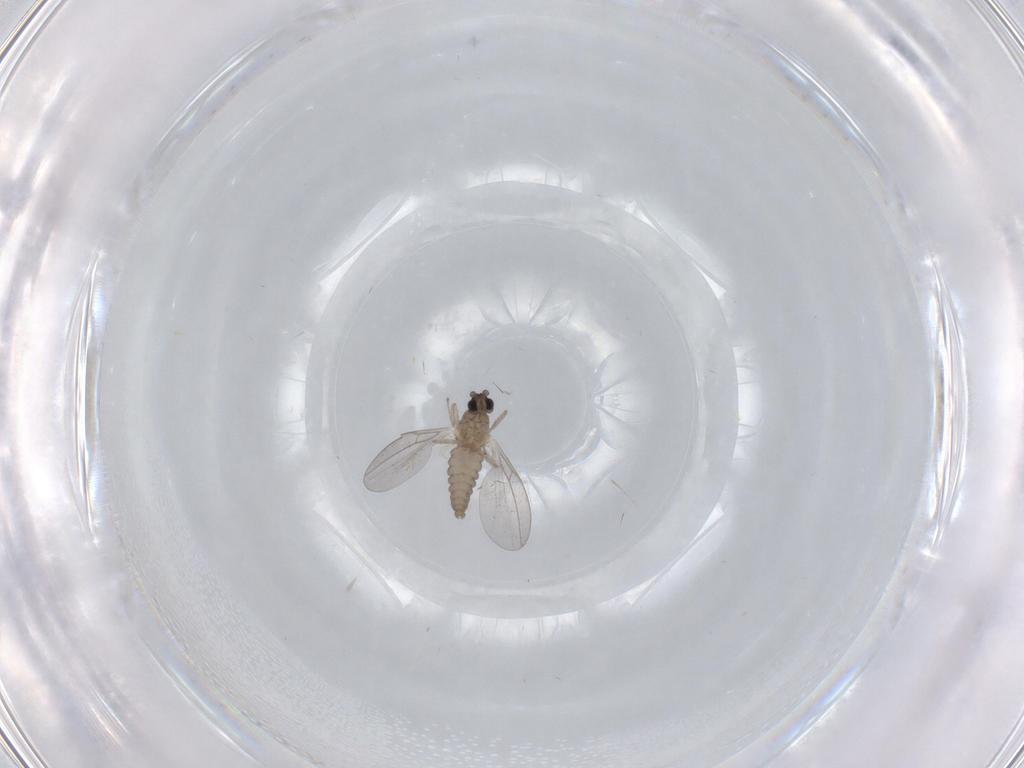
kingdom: Animalia
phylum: Arthropoda
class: Insecta
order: Diptera
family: Cecidomyiidae
